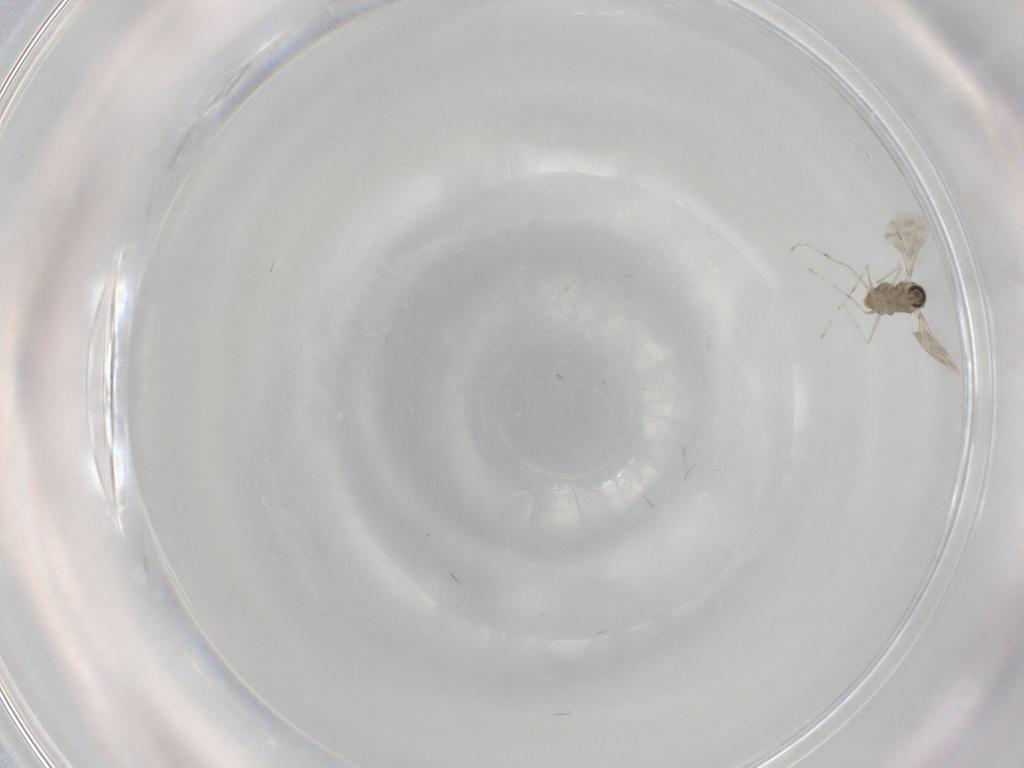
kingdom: Animalia
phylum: Arthropoda
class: Insecta
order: Diptera
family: Cecidomyiidae
